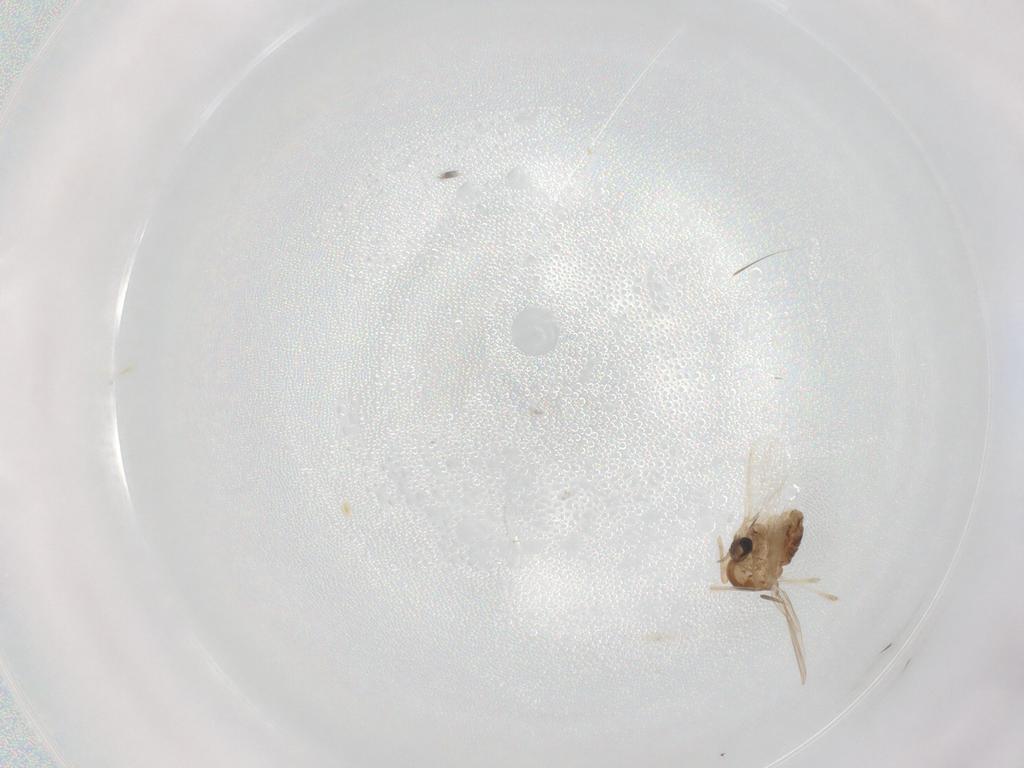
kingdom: Animalia
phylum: Arthropoda
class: Insecta
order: Diptera
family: Sarcophagidae
